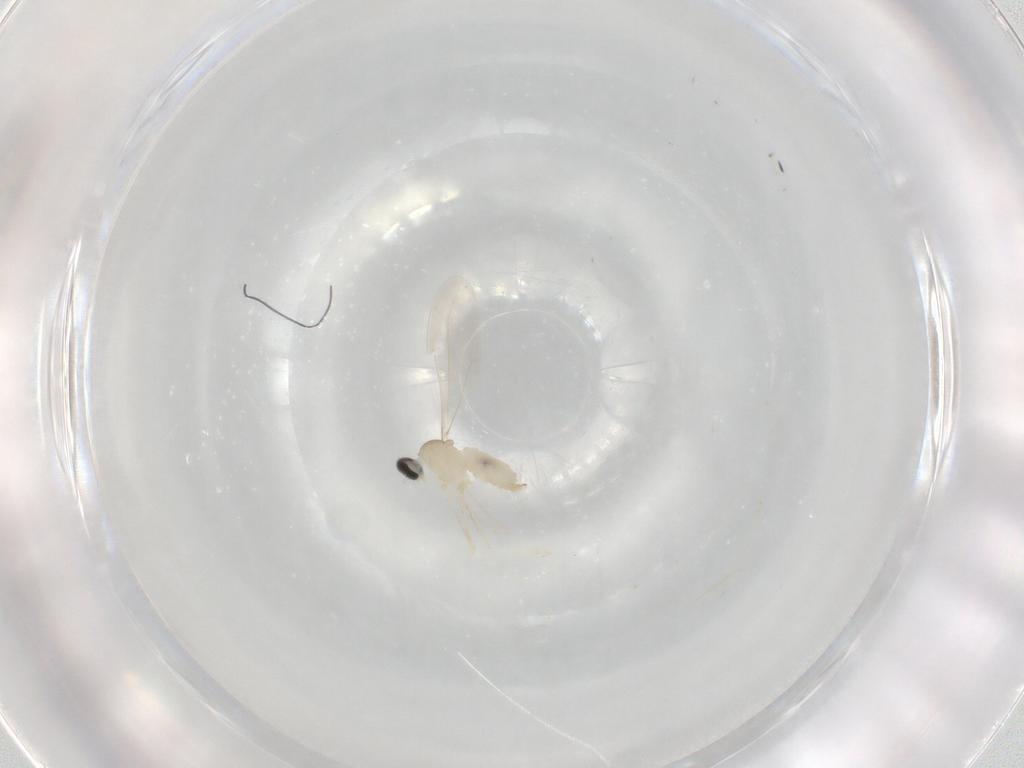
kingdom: Animalia
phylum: Arthropoda
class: Insecta
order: Diptera
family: Cecidomyiidae
